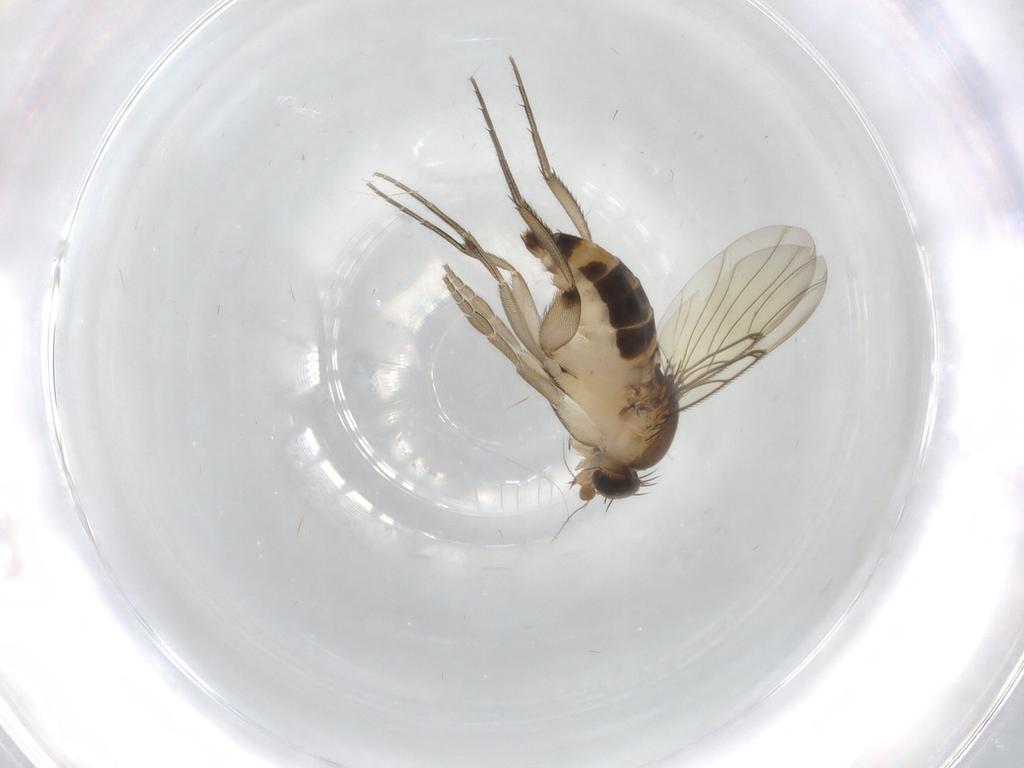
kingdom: Animalia
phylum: Arthropoda
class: Insecta
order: Diptera
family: Phoridae
